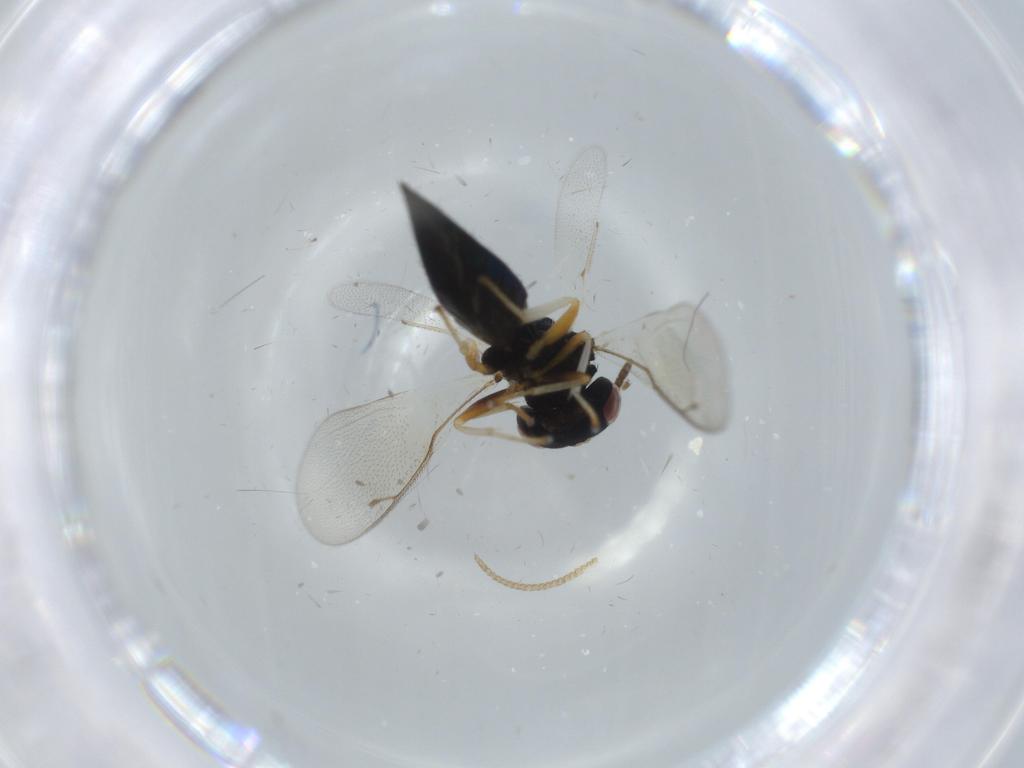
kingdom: Animalia
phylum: Arthropoda
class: Insecta
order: Hymenoptera
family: Pteromalidae
